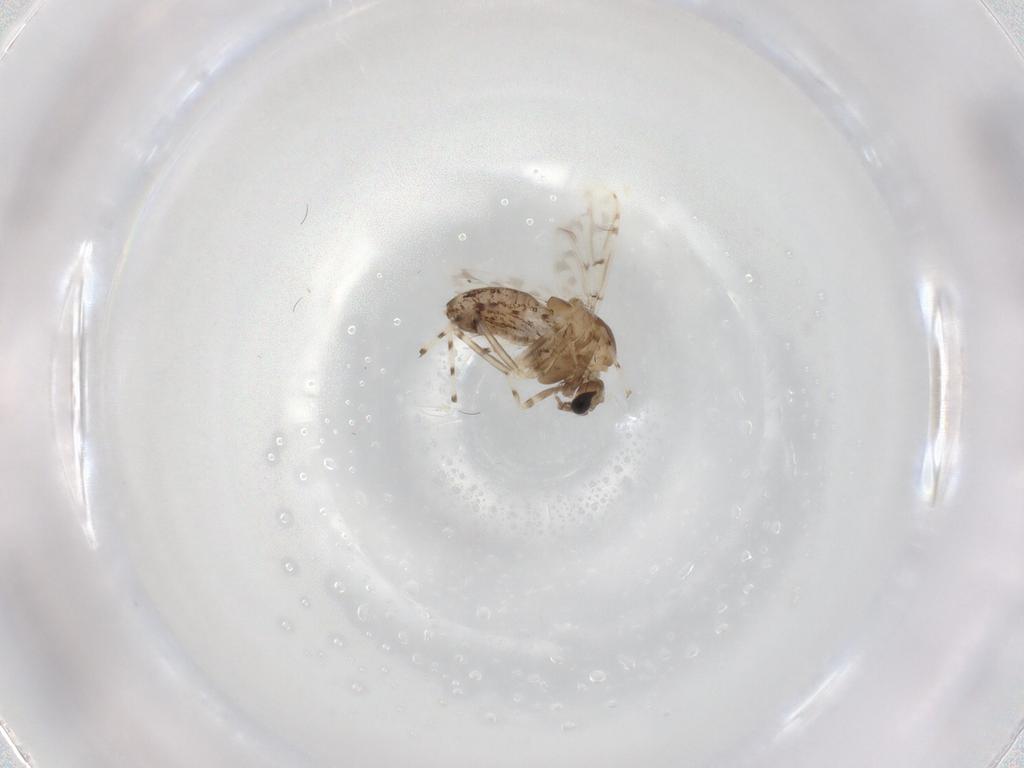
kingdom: Animalia
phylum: Arthropoda
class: Insecta
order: Diptera
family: Chironomidae
